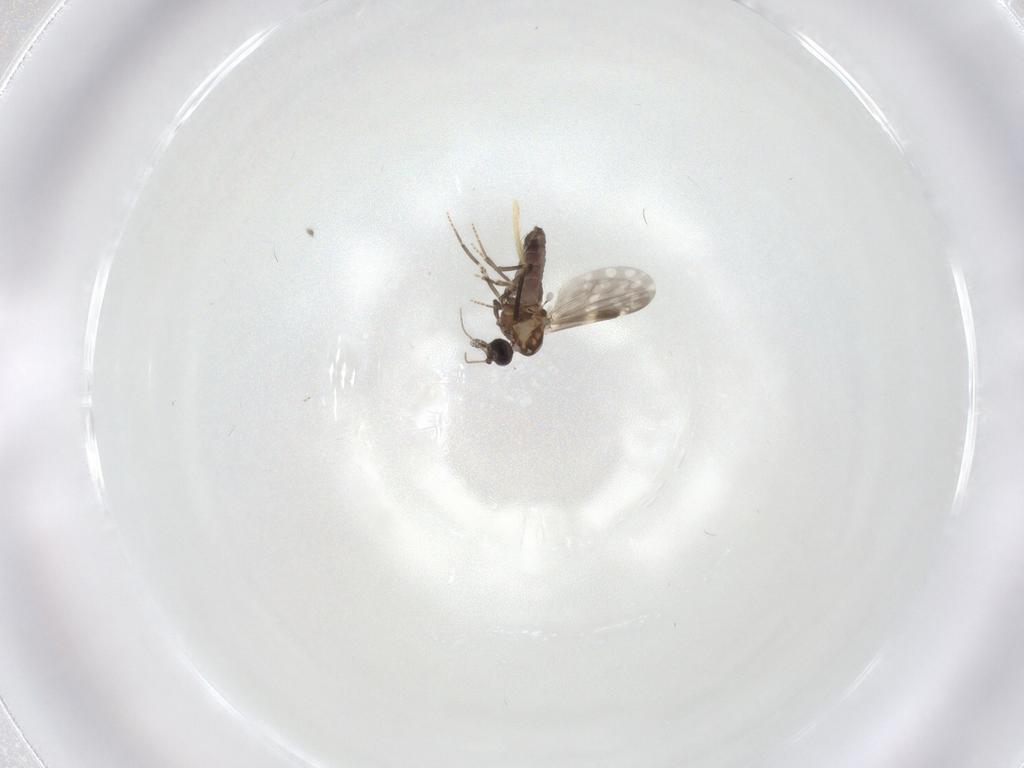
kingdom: Animalia
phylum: Arthropoda
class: Insecta
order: Diptera
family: Ceratopogonidae
